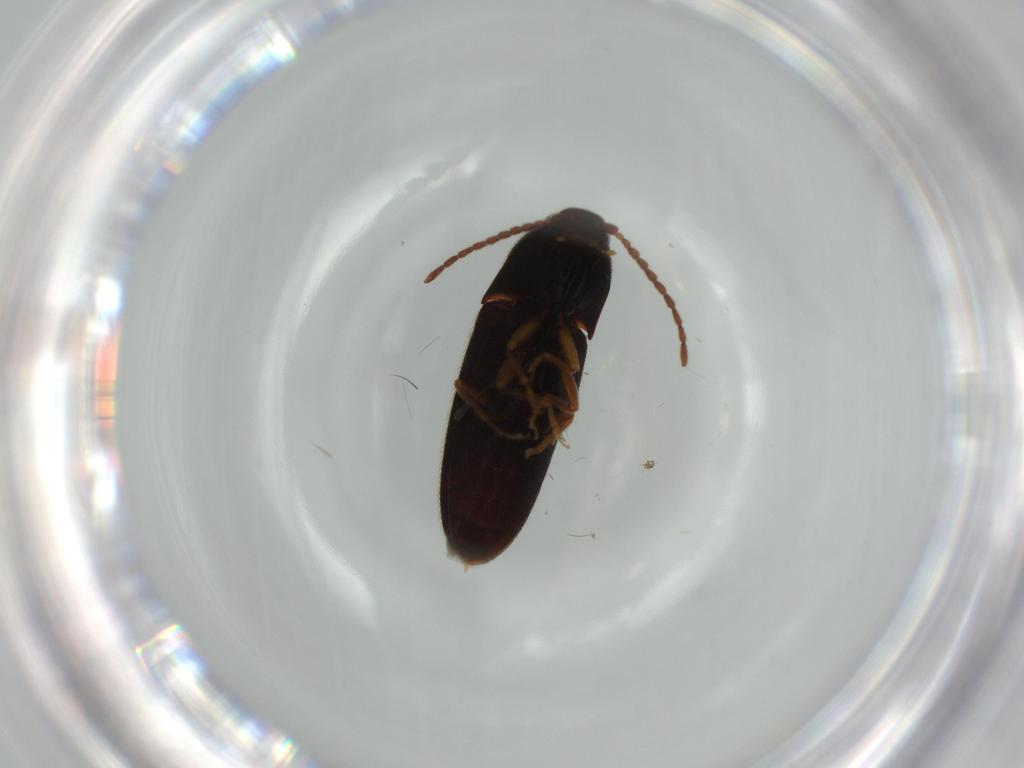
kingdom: Animalia
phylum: Arthropoda
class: Insecta
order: Coleoptera
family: Elateridae
